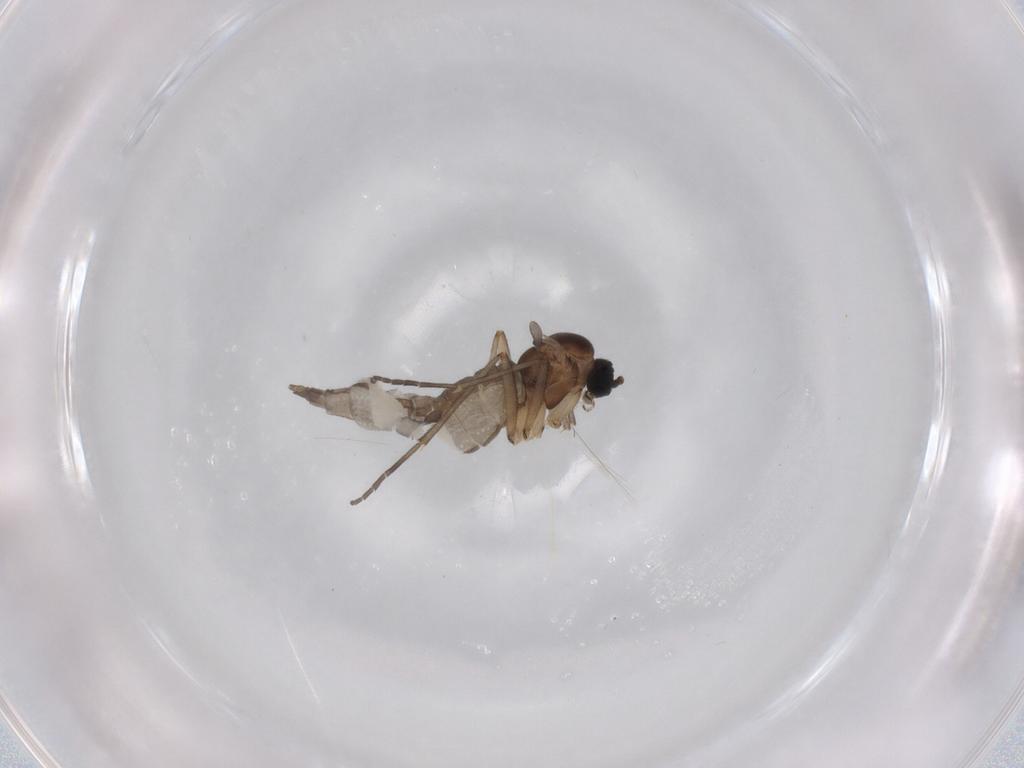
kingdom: Animalia
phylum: Arthropoda
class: Insecta
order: Diptera
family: Sciaridae
